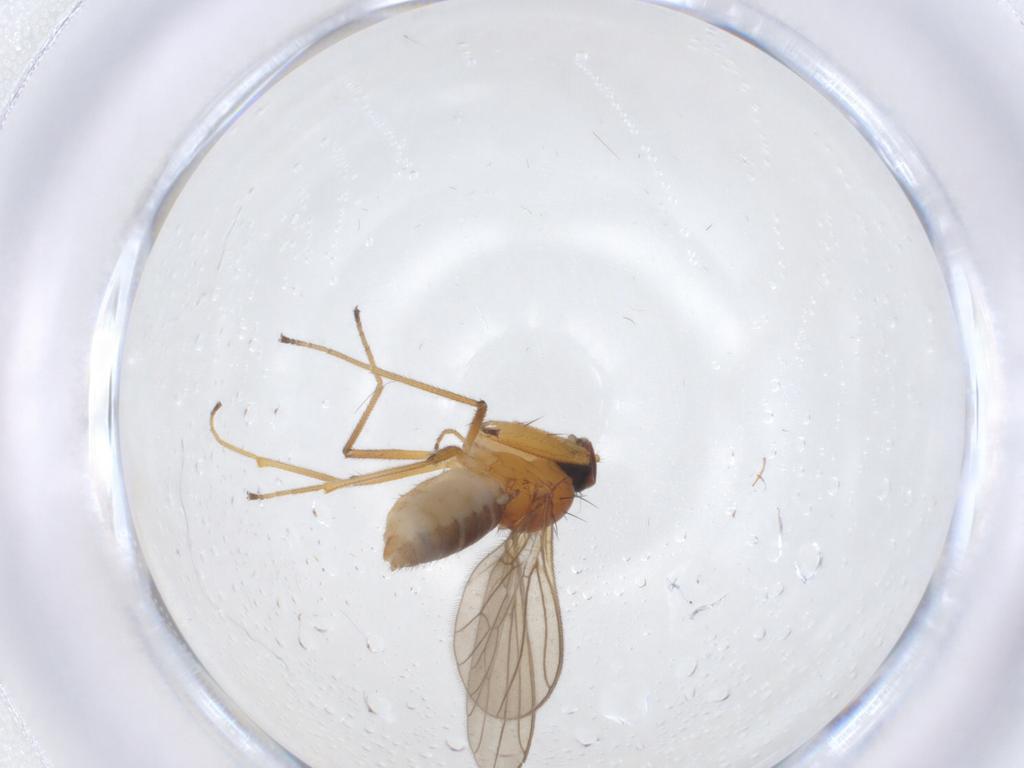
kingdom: Animalia
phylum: Arthropoda
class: Insecta
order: Diptera
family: Empididae
